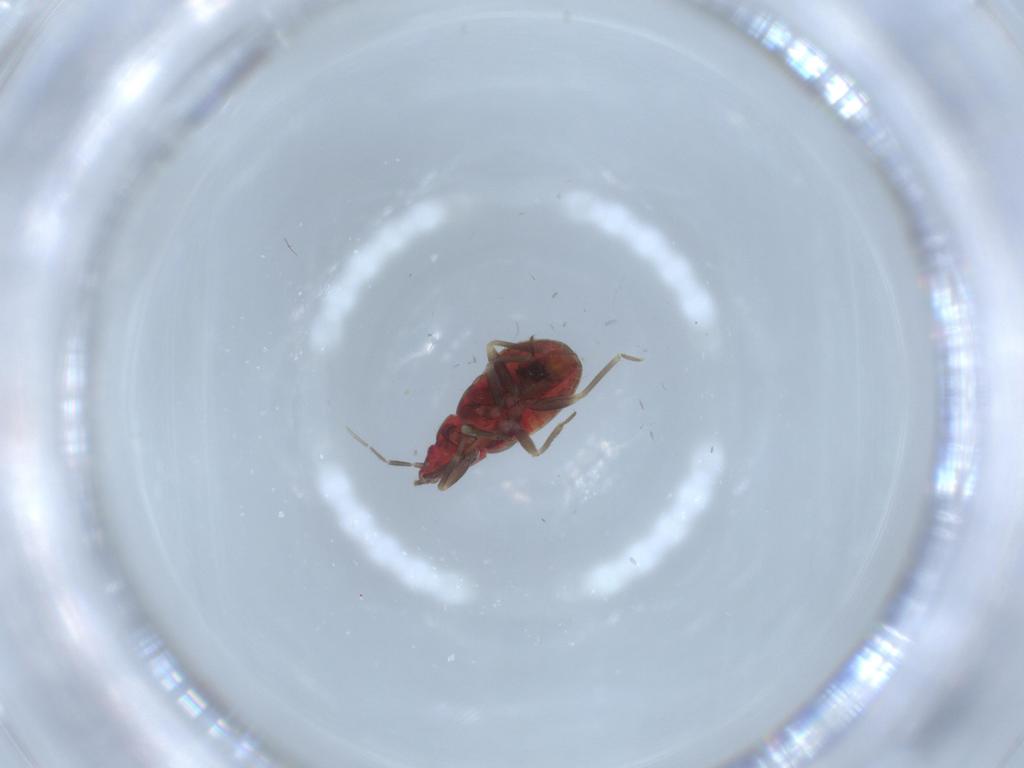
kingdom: Animalia
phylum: Arthropoda
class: Insecta
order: Hemiptera
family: Anthocoridae
